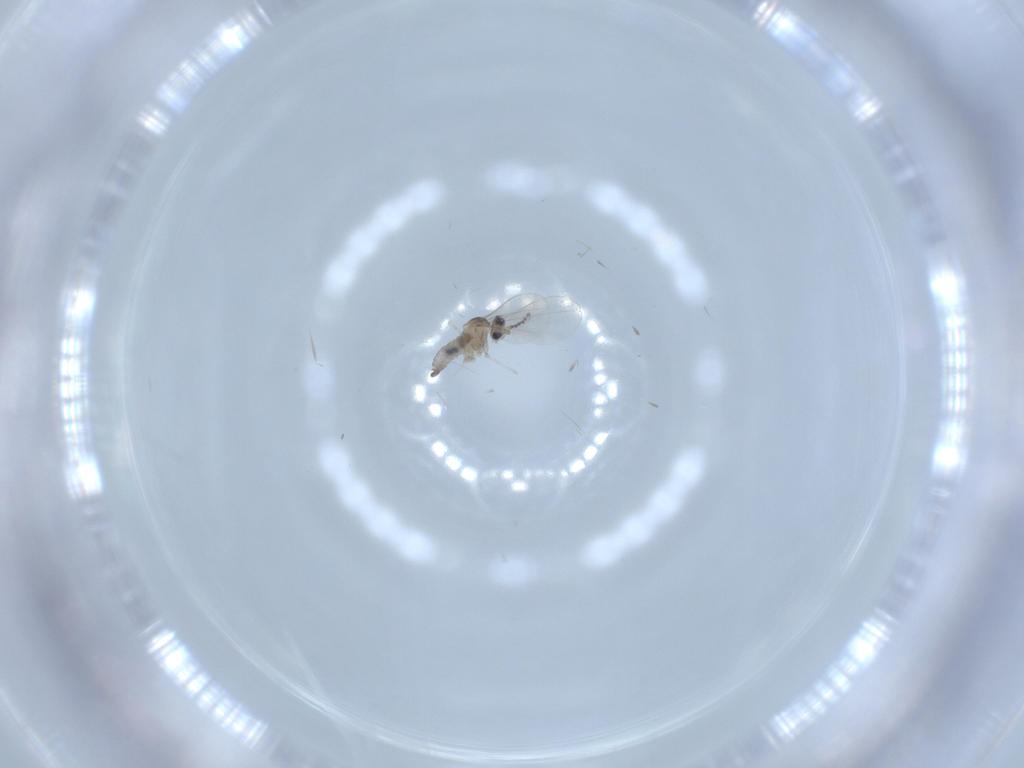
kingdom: Animalia
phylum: Arthropoda
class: Insecta
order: Diptera
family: Cecidomyiidae
